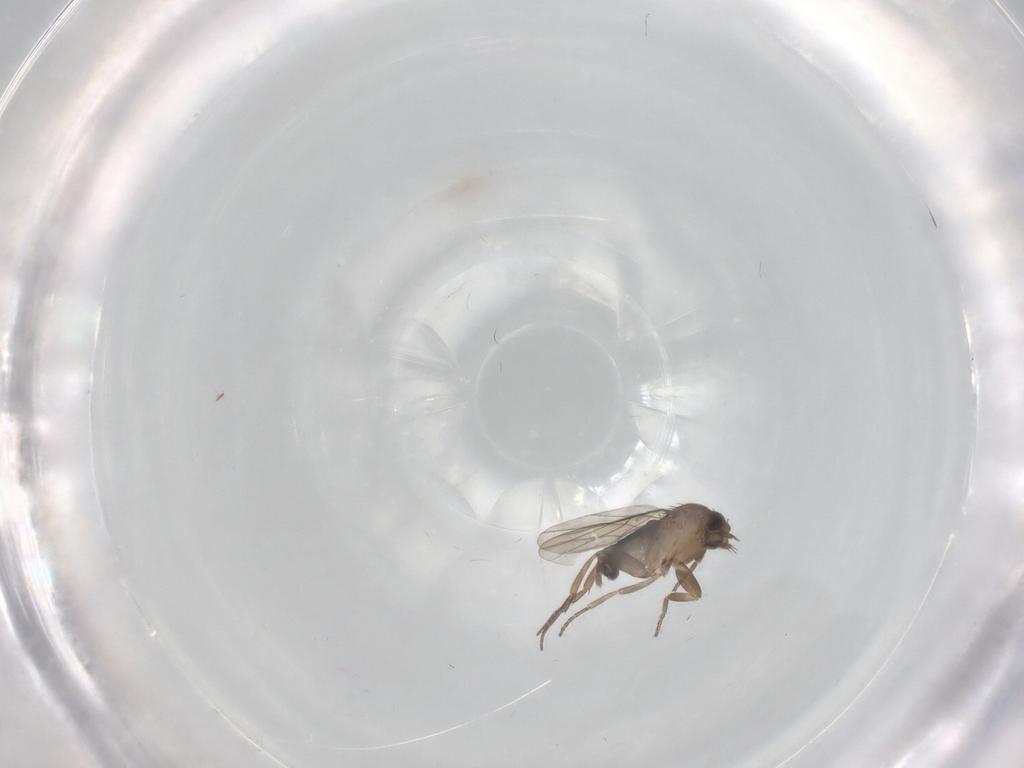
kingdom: Animalia
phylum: Arthropoda
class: Insecta
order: Diptera
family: Phoridae
